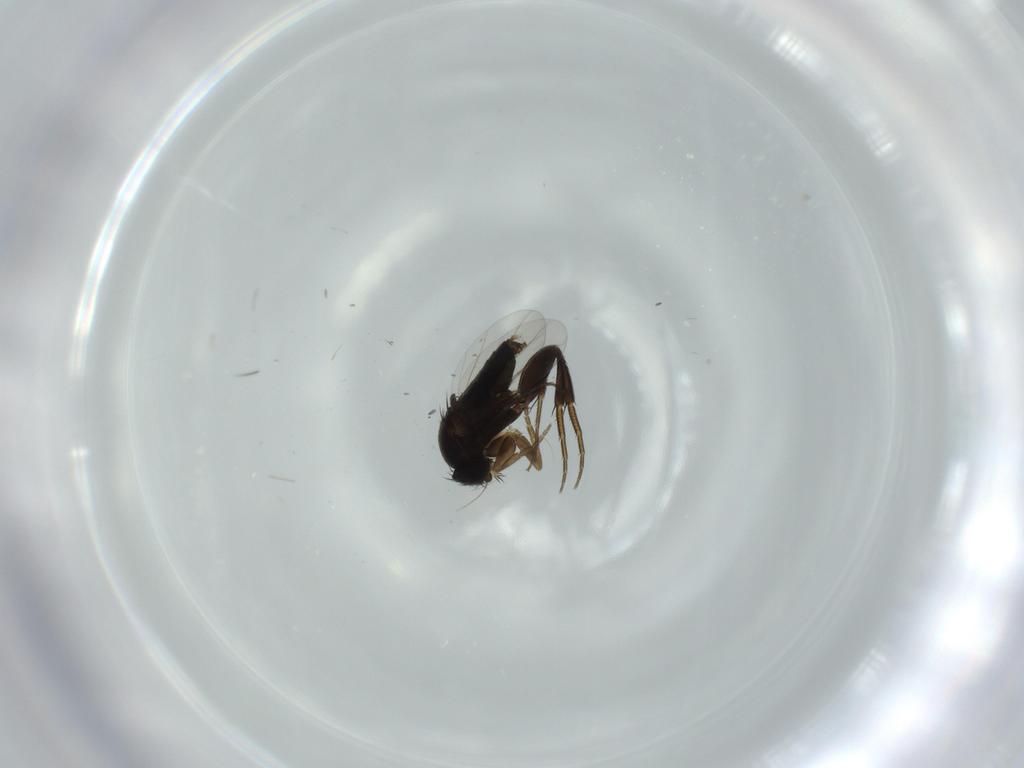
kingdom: Animalia
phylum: Arthropoda
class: Insecta
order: Diptera
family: Phoridae
